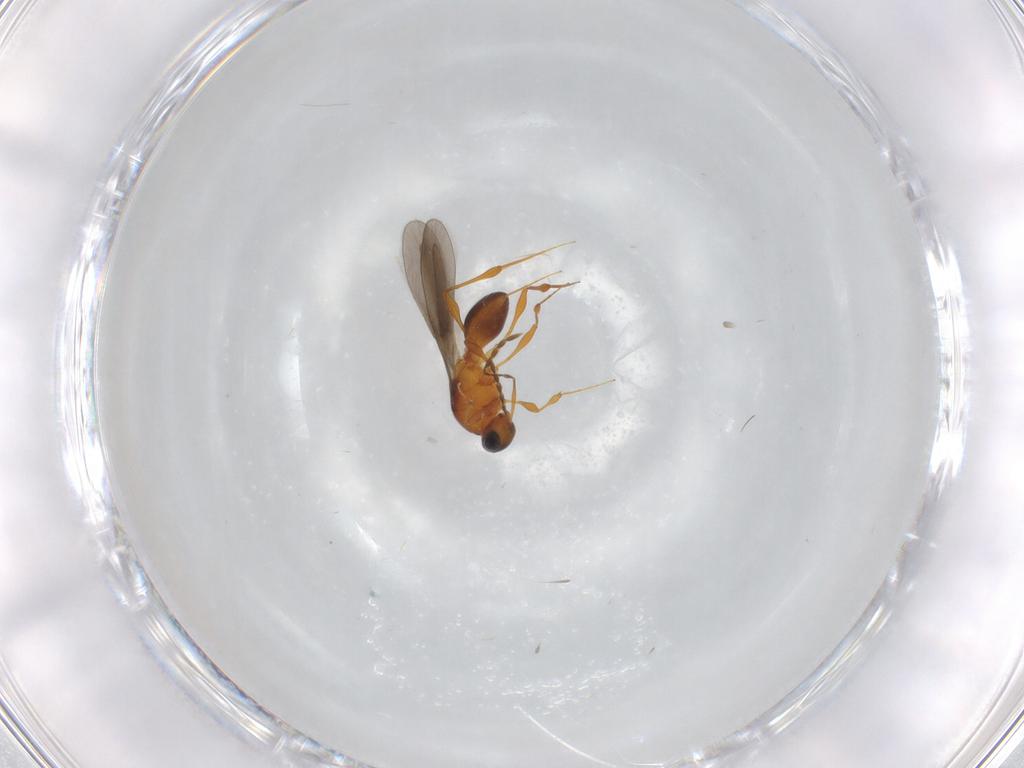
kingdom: Animalia
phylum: Arthropoda
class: Insecta
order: Hymenoptera
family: Platygastridae
